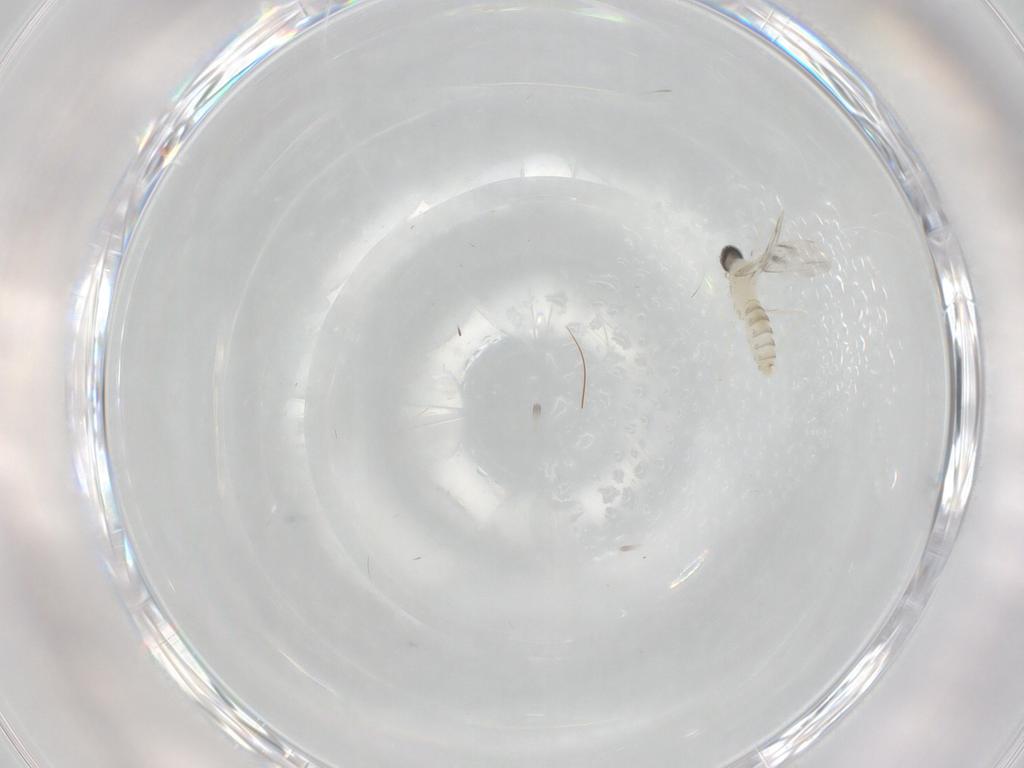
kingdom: Animalia
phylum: Arthropoda
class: Insecta
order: Diptera
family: Cecidomyiidae
